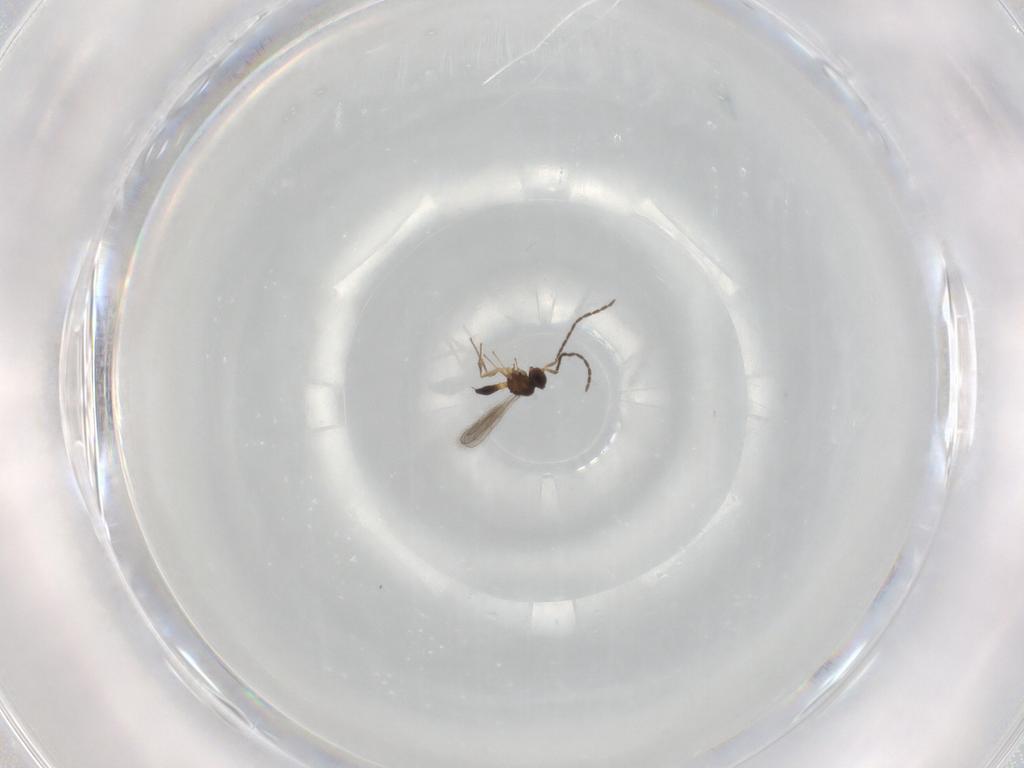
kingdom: Animalia
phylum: Arthropoda
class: Insecta
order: Hymenoptera
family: Scelionidae
